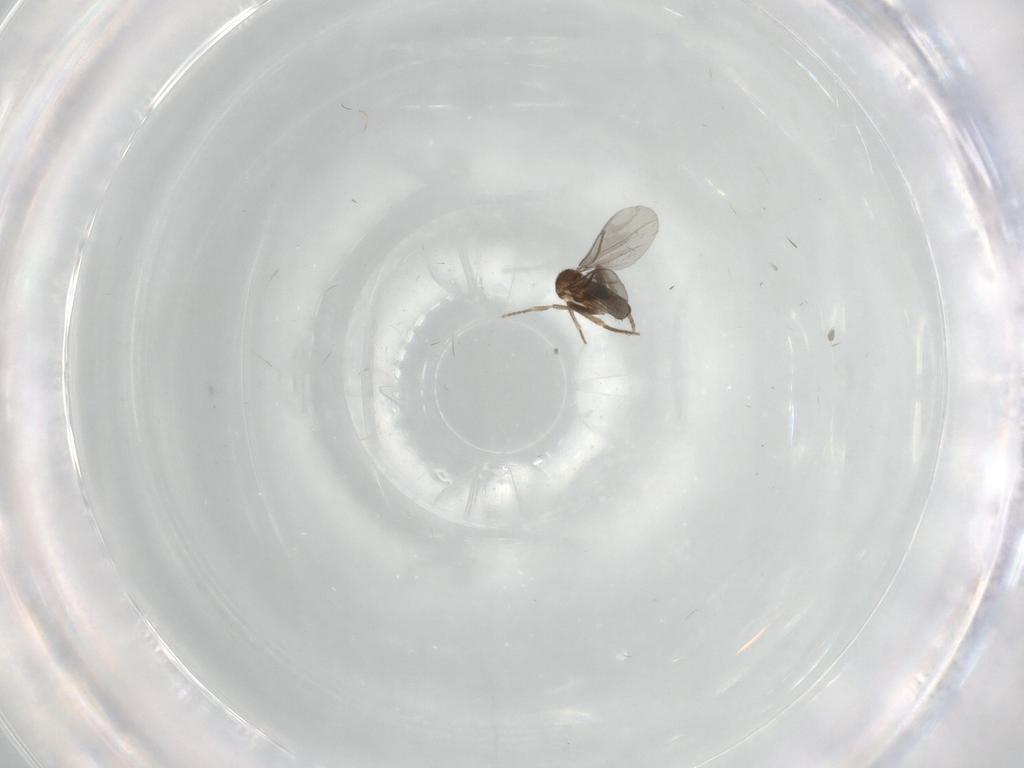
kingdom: Animalia
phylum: Arthropoda
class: Insecta
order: Diptera
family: Phoridae
